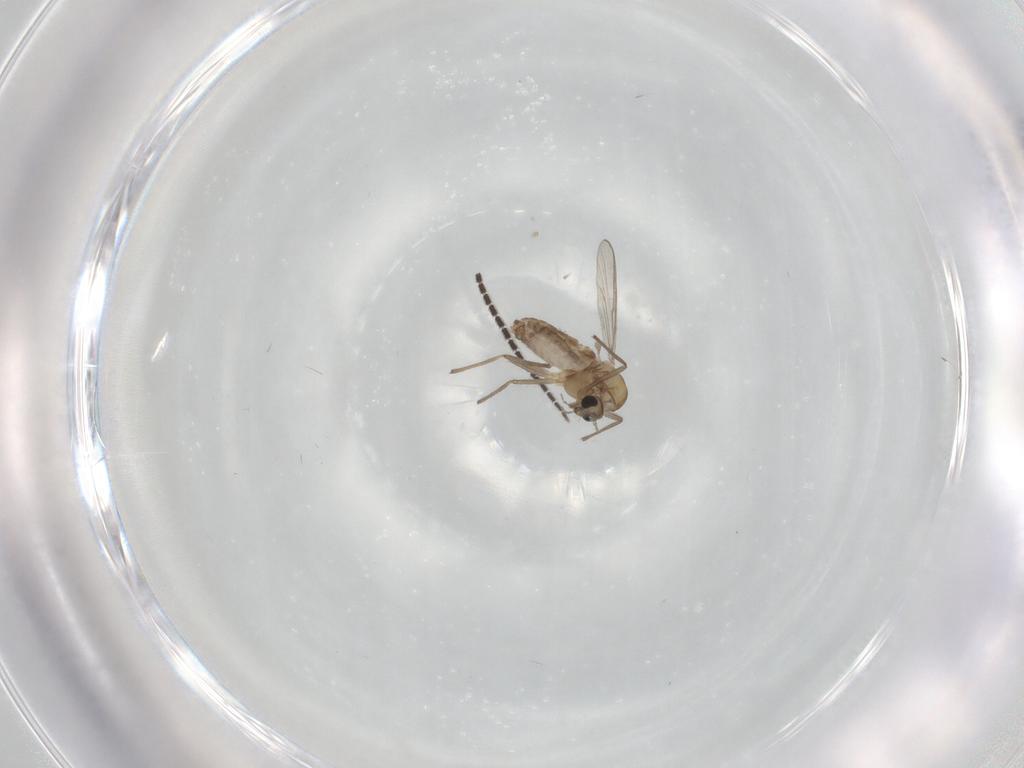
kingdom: Animalia
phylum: Arthropoda
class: Insecta
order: Diptera
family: Chironomidae
